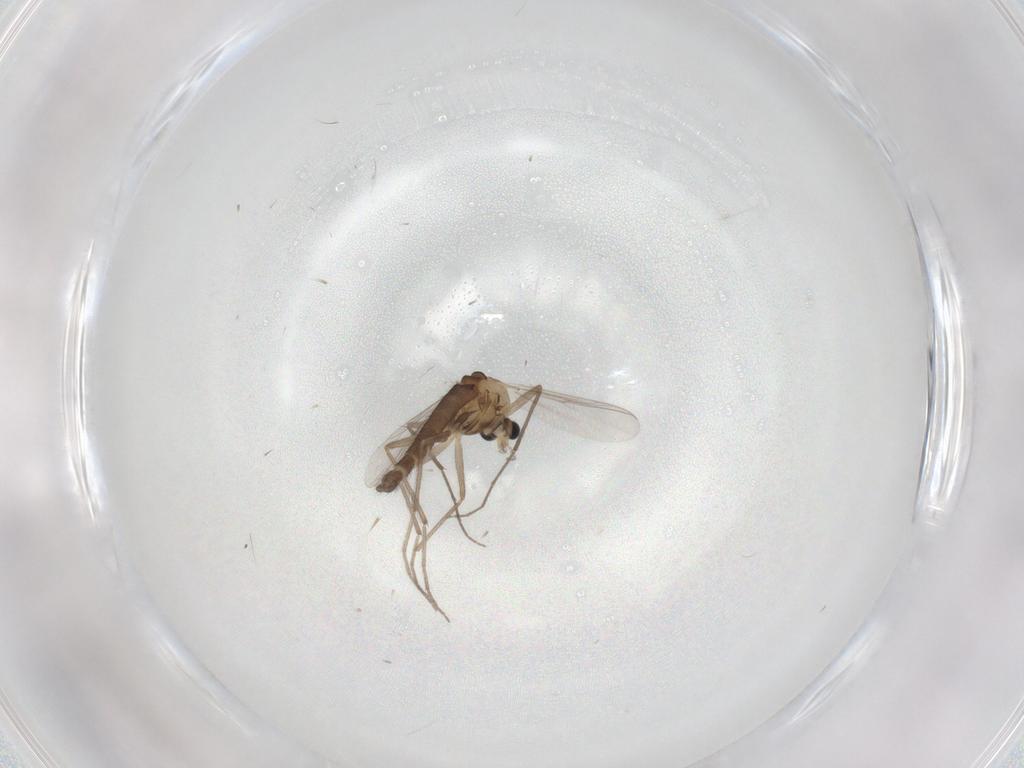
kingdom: Animalia
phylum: Arthropoda
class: Insecta
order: Diptera
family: Chironomidae
